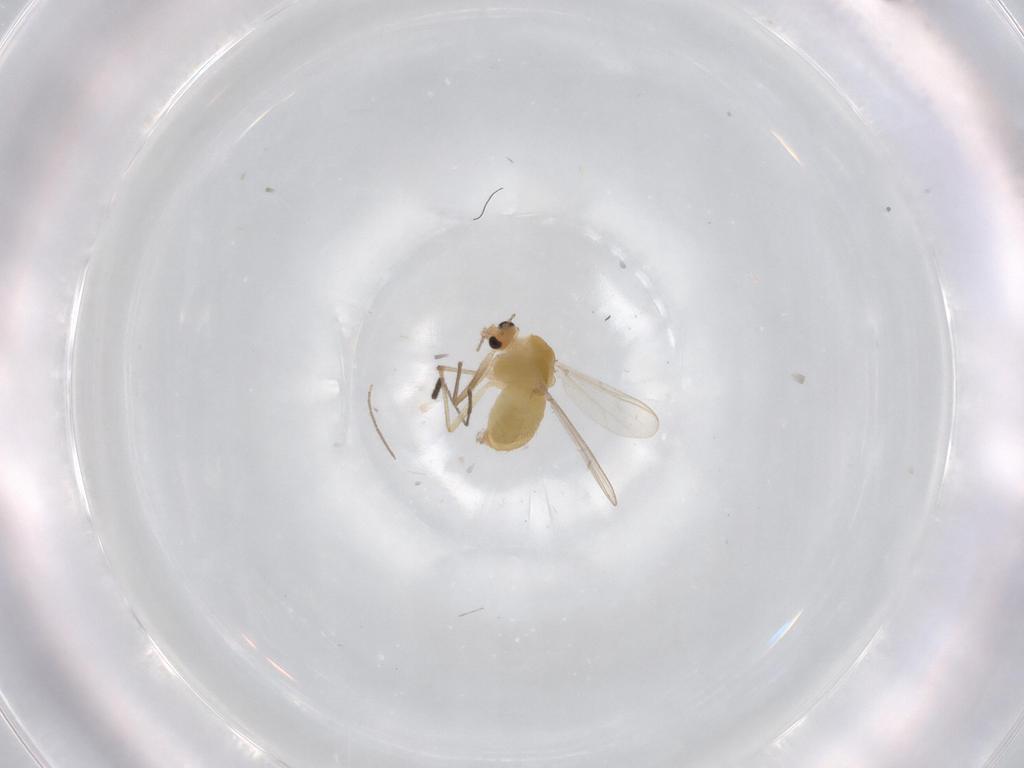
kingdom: Animalia
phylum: Arthropoda
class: Insecta
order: Diptera
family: Chironomidae
